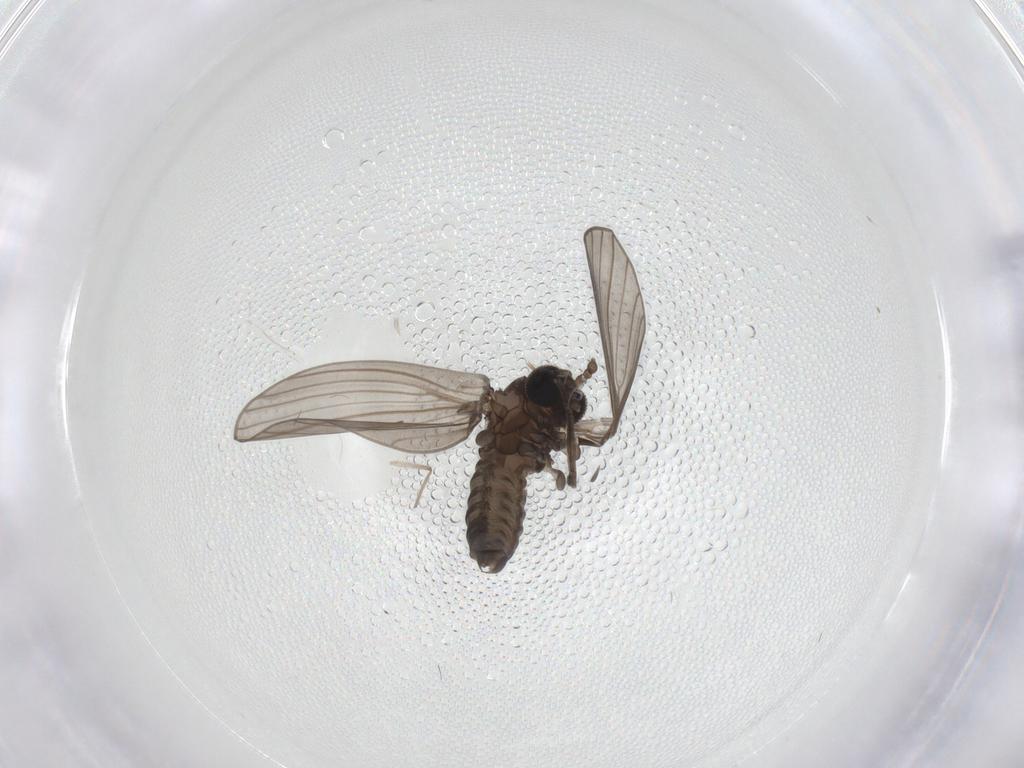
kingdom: Animalia
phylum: Arthropoda
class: Insecta
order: Diptera
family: Psychodidae
